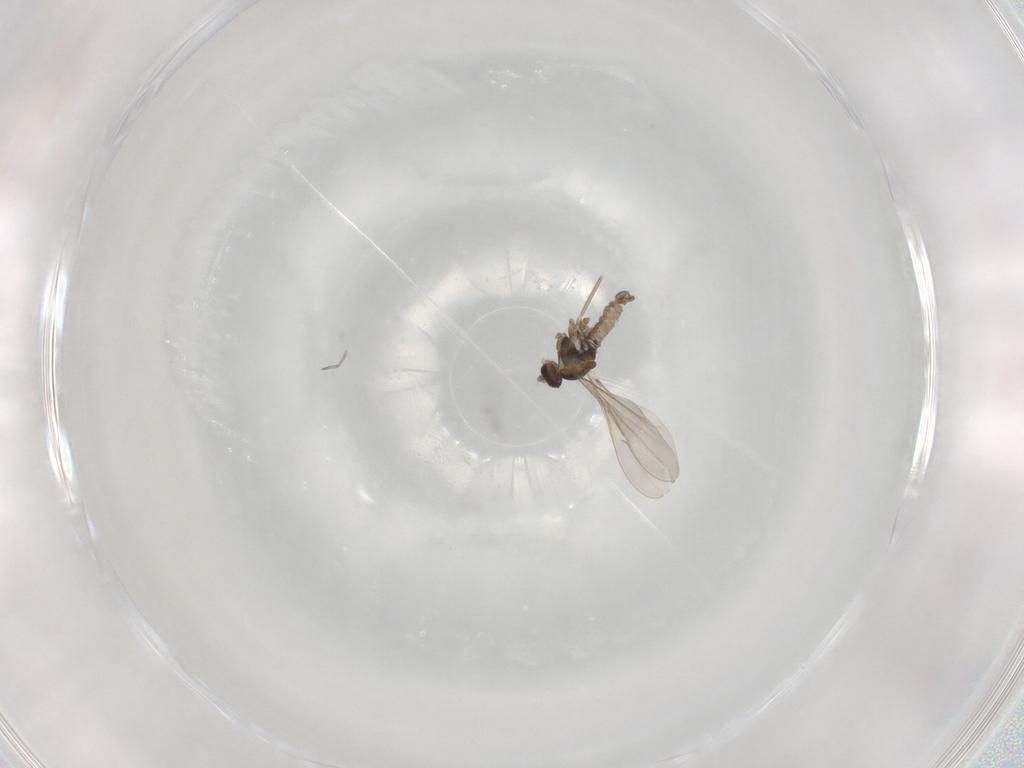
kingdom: Animalia
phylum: Arthropoda
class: Insecta
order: Diptera
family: Cecidomyiidae
